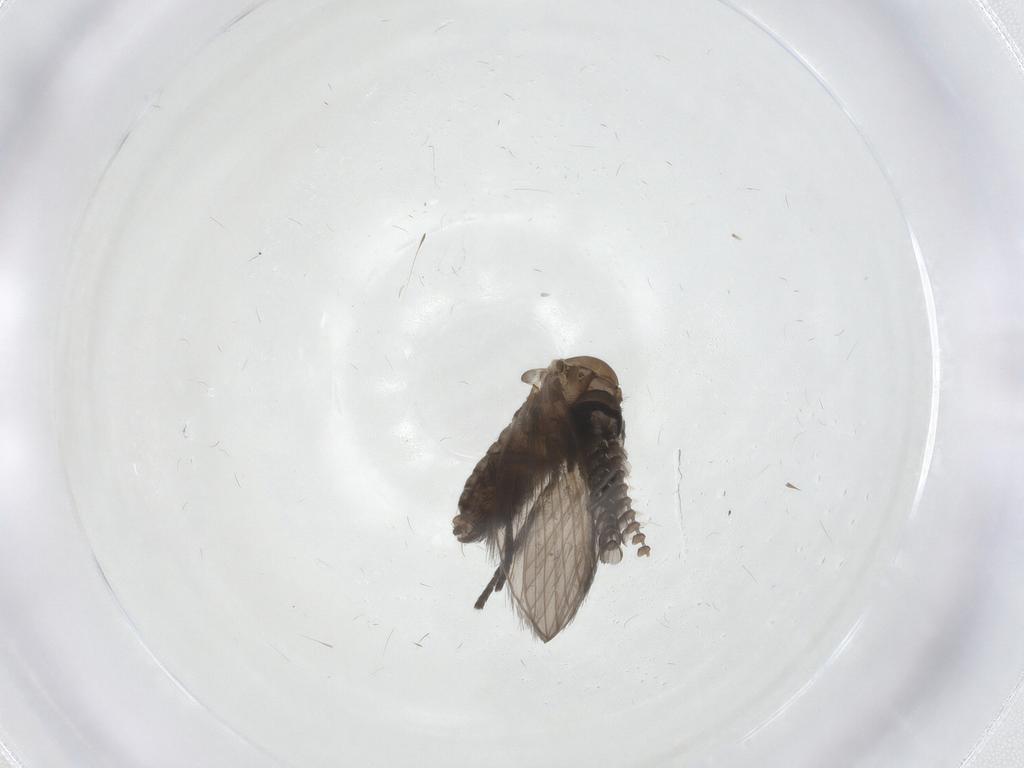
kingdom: Animalia
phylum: Arthropoda
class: Insecta
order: Diptera
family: Psychodidae
